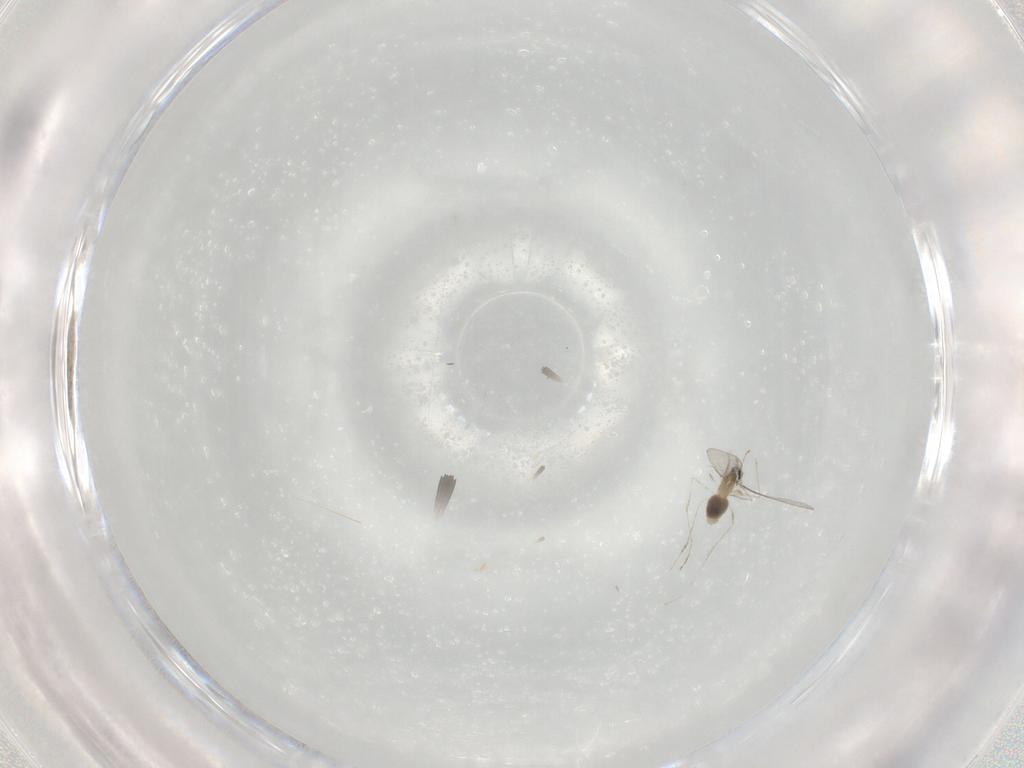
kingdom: Animalia
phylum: Arthropoda
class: Insecta
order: Diptera
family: Cecidomyiidae
